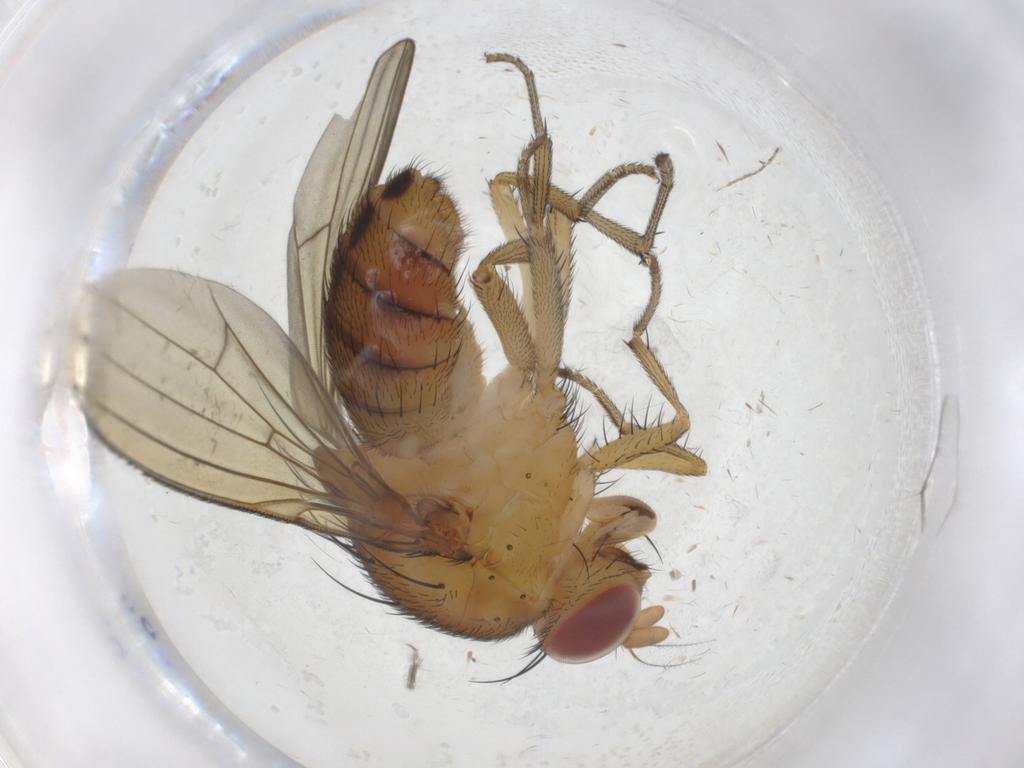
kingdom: Animalia
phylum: Arthropoda
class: Insecta
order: Diptera
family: Sciaridae
